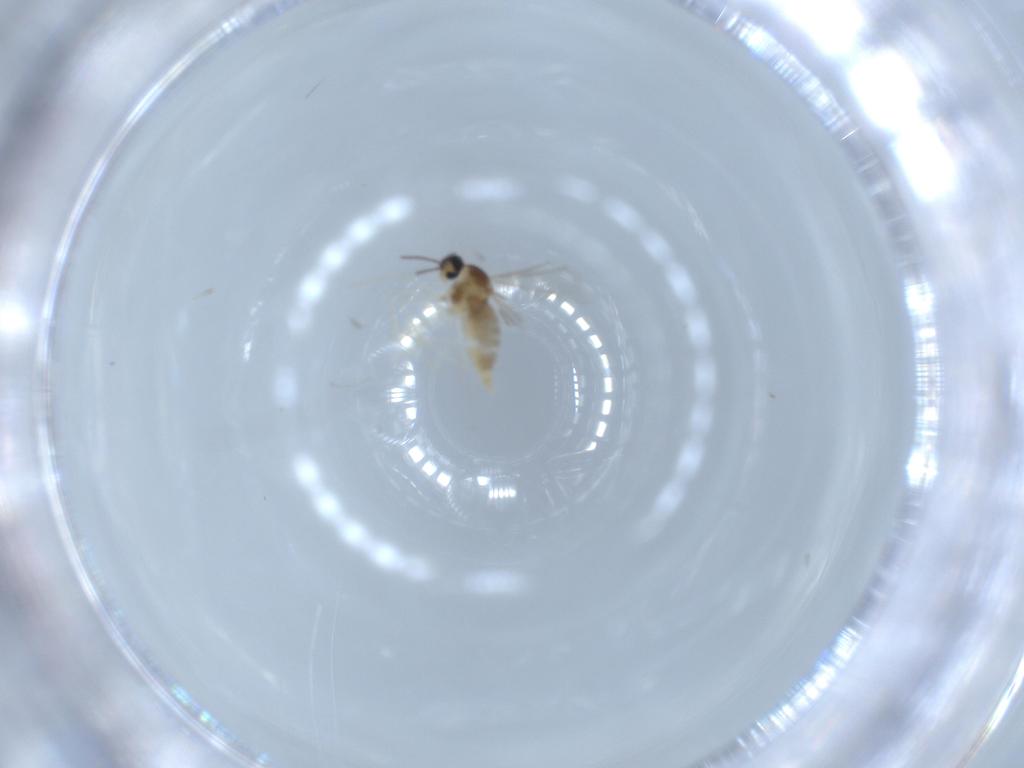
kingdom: Animalia
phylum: Arthropoda
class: Insecta
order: Diptera
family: Cecidomyiidae
